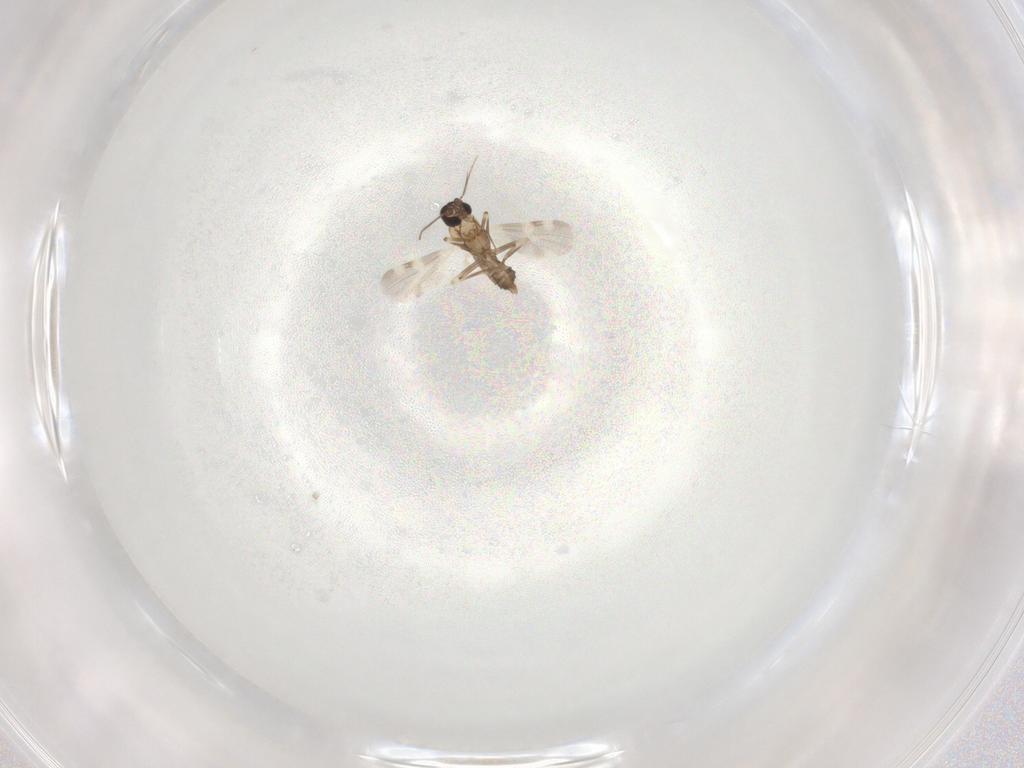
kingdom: Animalia
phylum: Arthropoda
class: Insecta
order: Diptera
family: Ceratopogonidae
